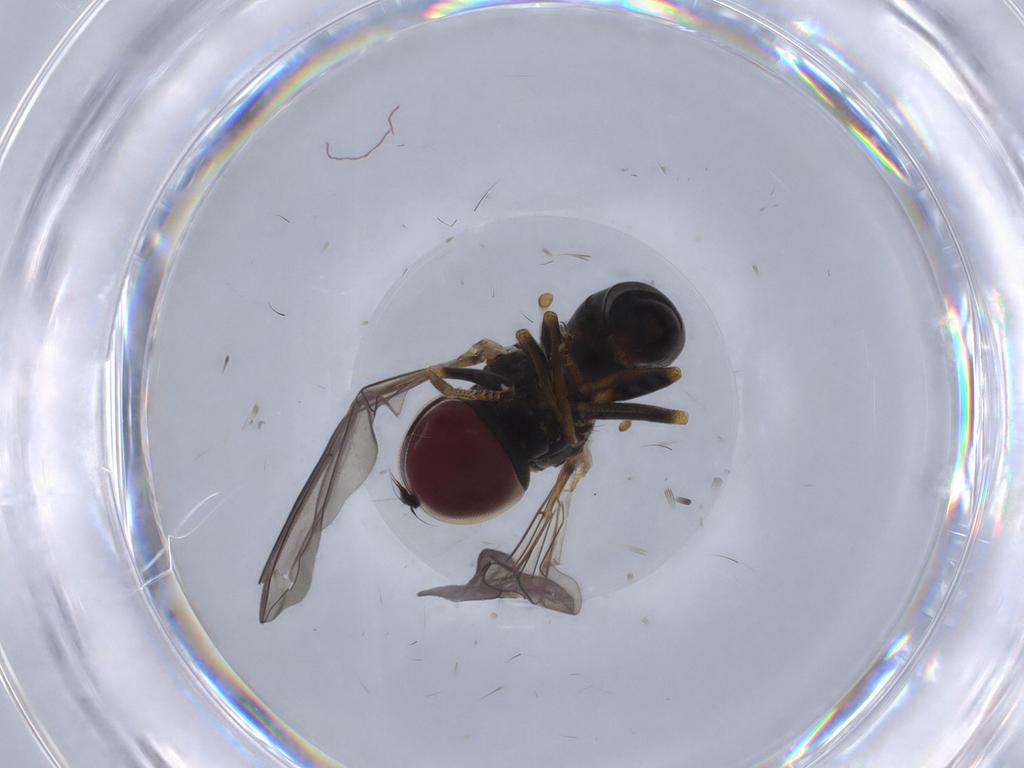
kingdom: Animalia
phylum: Arthropoda
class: Insecta
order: Diptera
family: Pipunculidae
